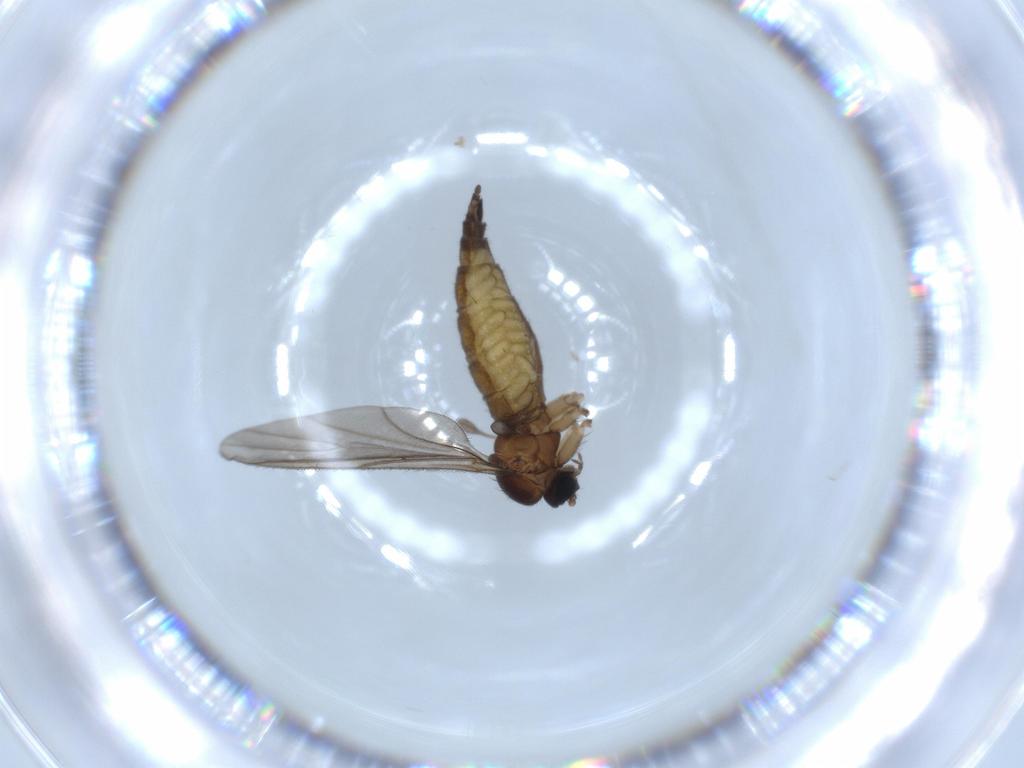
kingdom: Animalia
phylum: Arthropoda
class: Insecta
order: Diptera
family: Sciaridae
